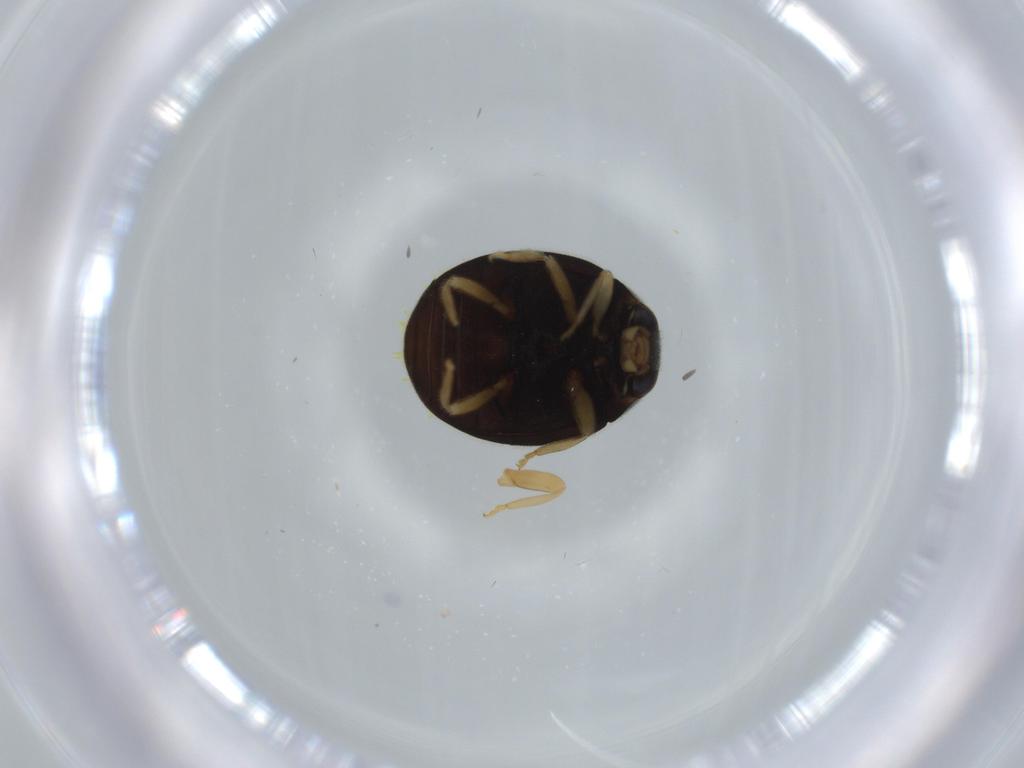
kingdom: Animalia
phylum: Arthropoda
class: Insecta
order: Coleoptera
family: Coccinellidae
